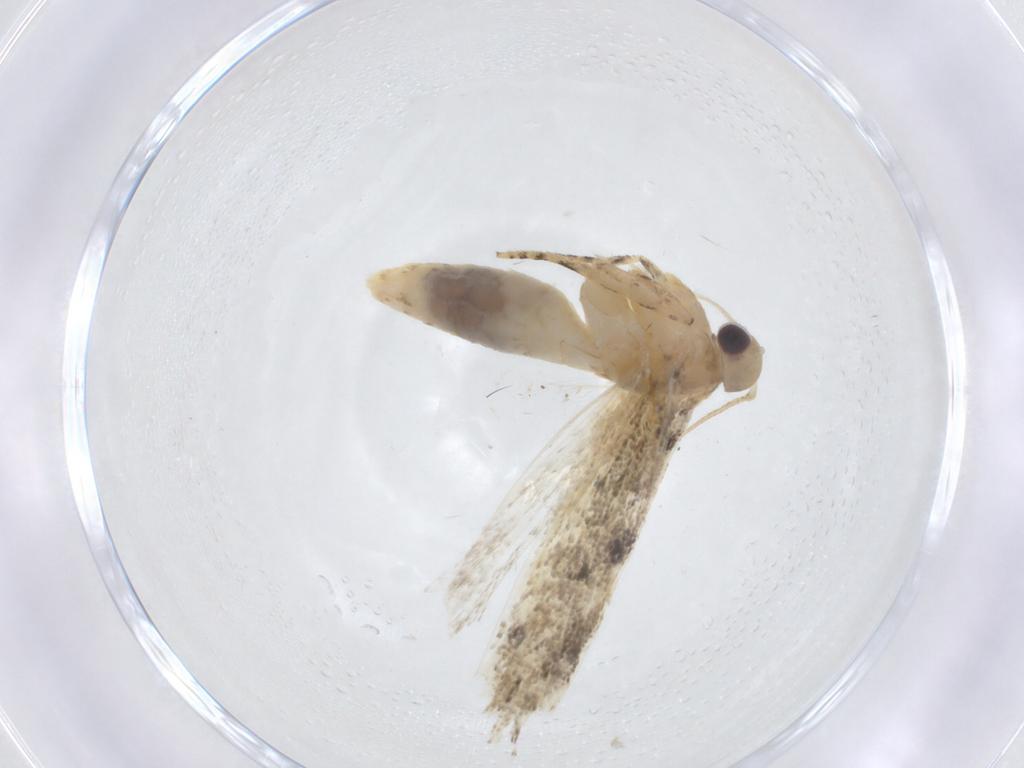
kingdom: Animalia
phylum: Arthropoda
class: Insecta
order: Lepidoptera
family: Gelechiidae
